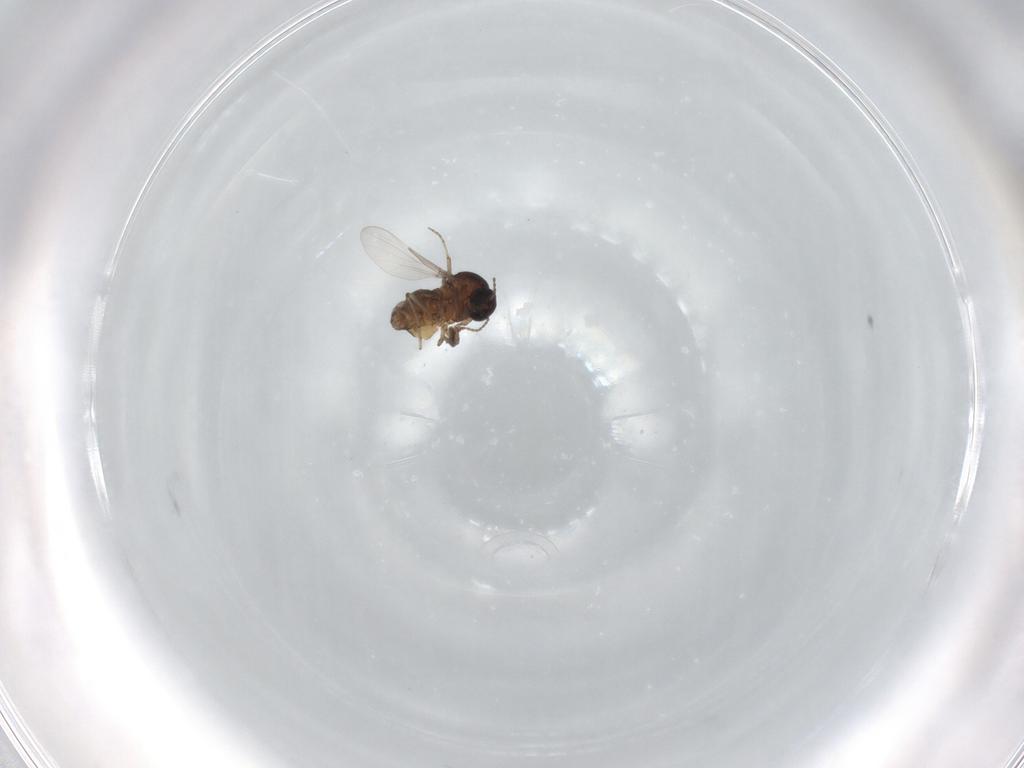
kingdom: Animalia
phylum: Arthropoda
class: Insecta
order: Diptera
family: Ceratopogonidae
